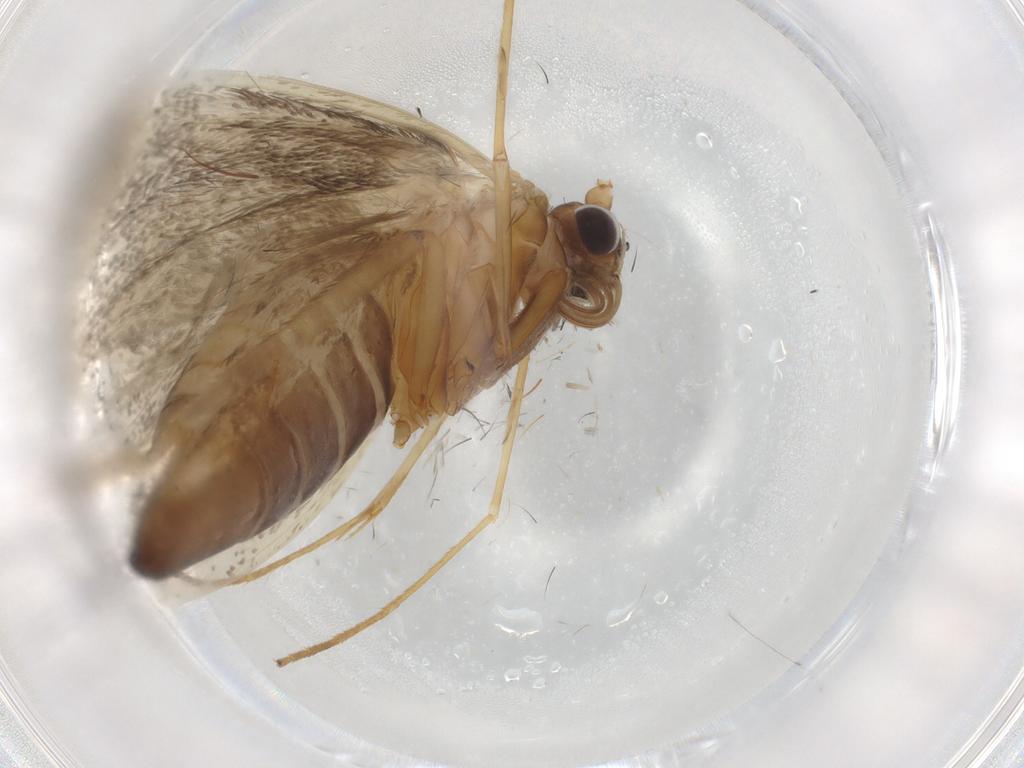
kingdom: Animalia
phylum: Arthropoda
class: Insecta
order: Lepidoptera
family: Adelidae
